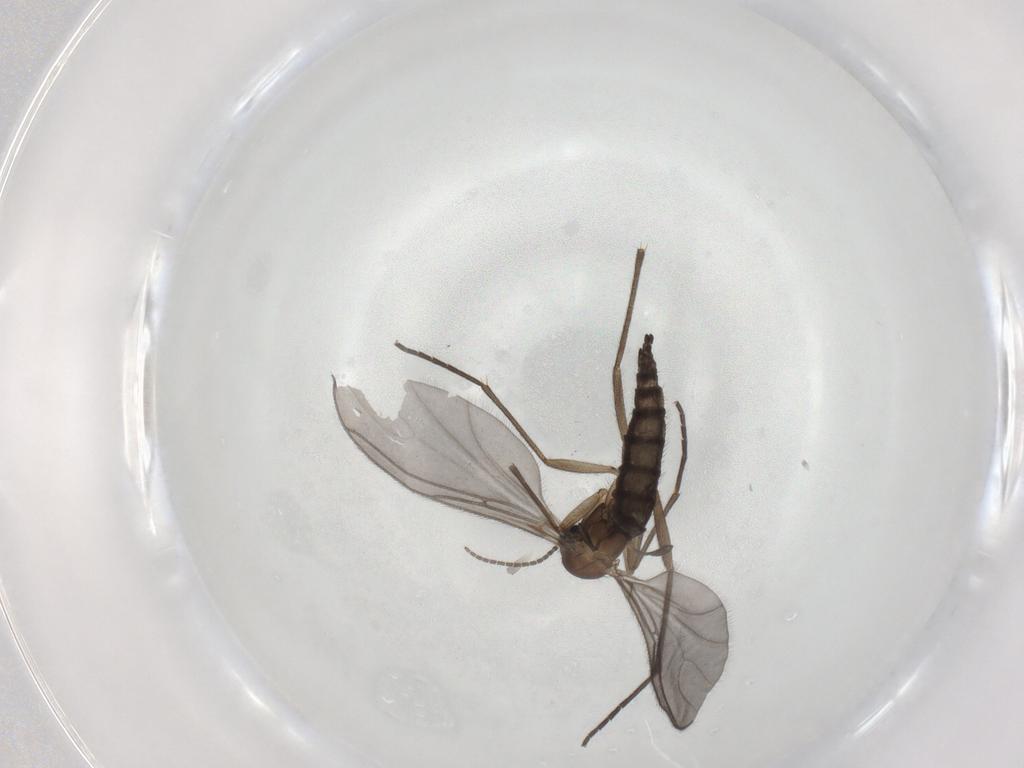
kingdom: Animalia
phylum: Arthropoda
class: Insecta
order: Diptera
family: Sciaridae
